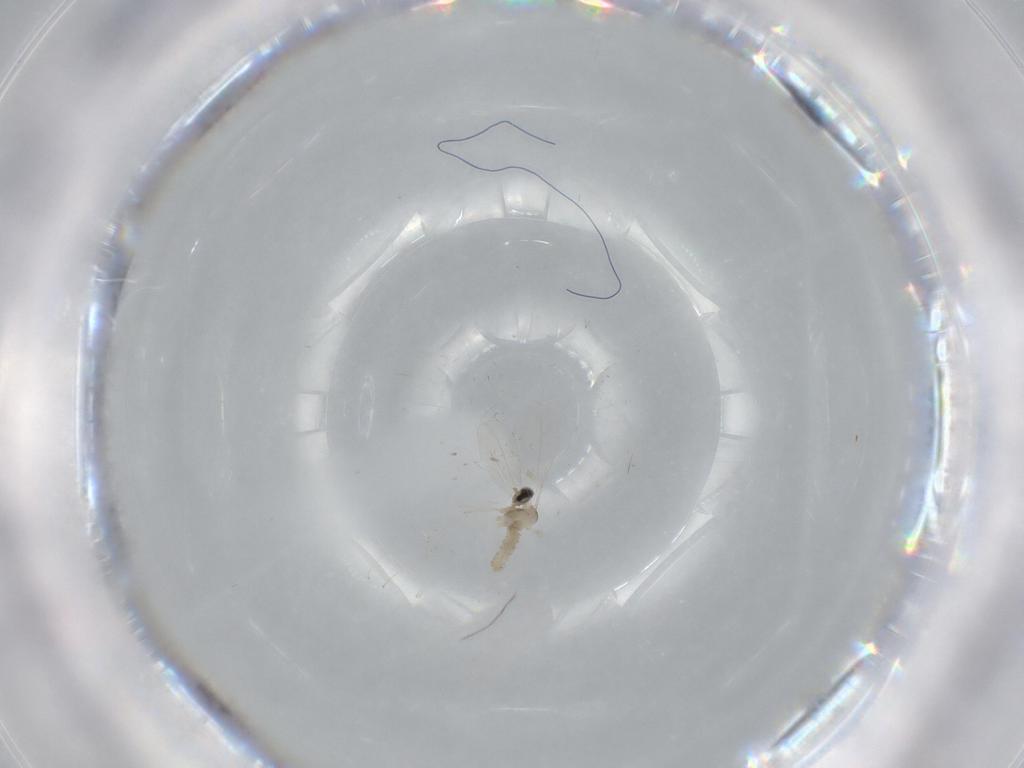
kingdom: Animalia
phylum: Arthropoda
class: Insecta
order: Diptera
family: Cecidomyiidae
